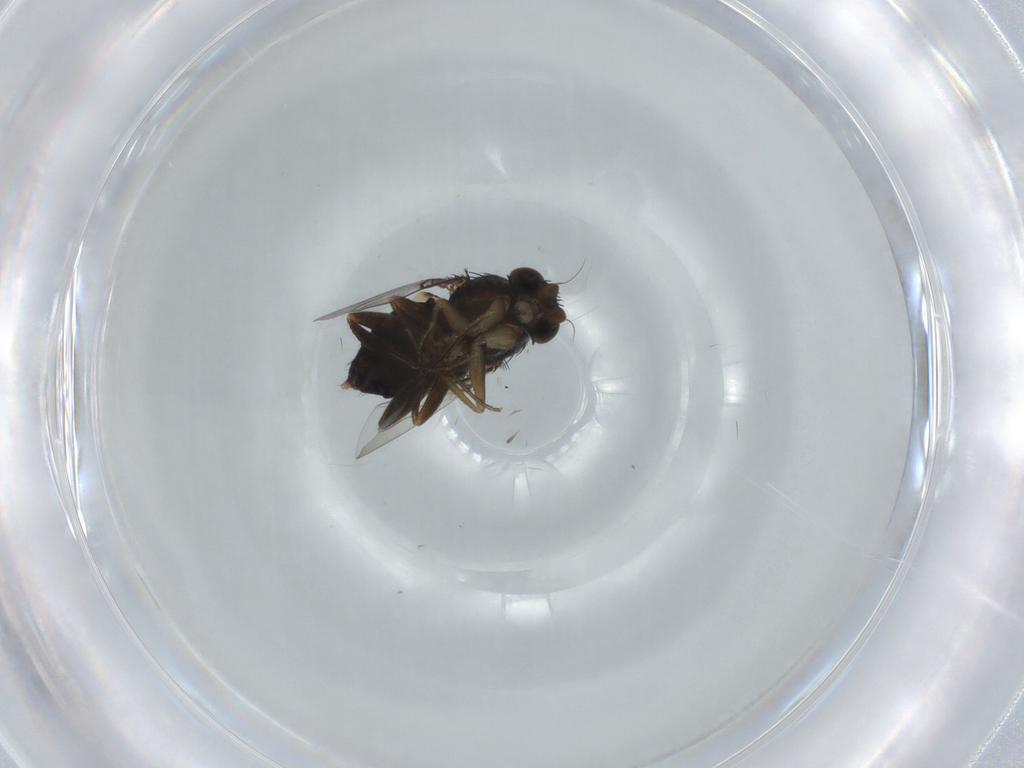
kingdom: Animalia
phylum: Arthropoda
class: Insecta
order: Diptera
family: Phoridae
